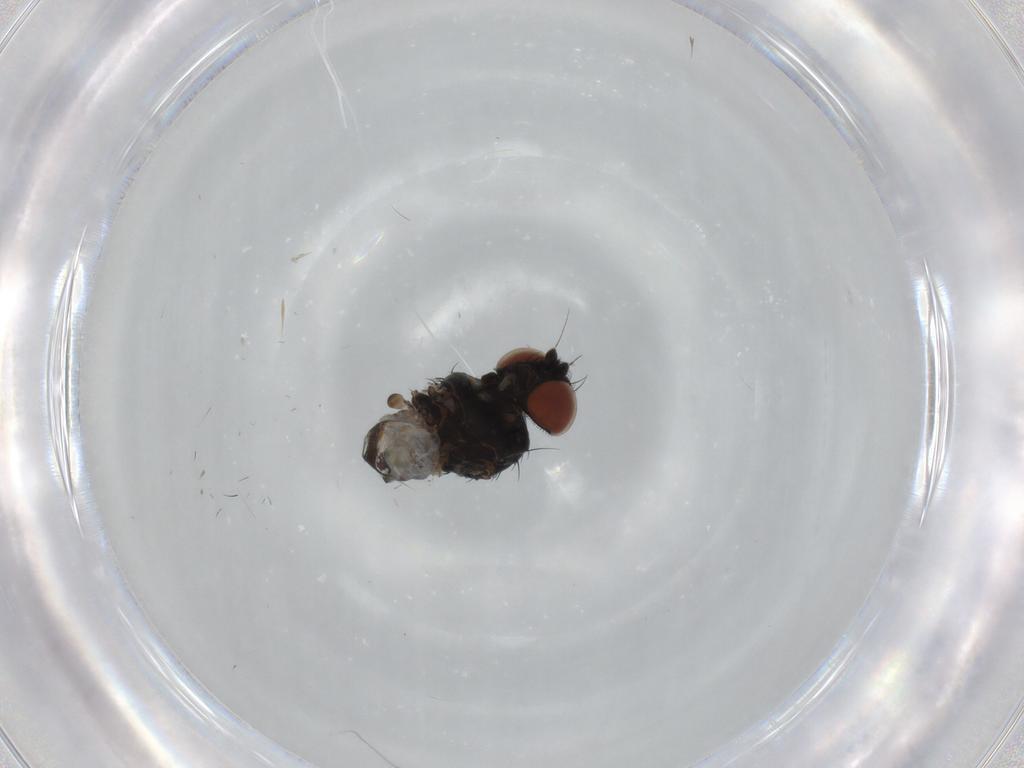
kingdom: Animalia
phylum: Arthropoda
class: Insecta
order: Diptera
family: Milichiidae
